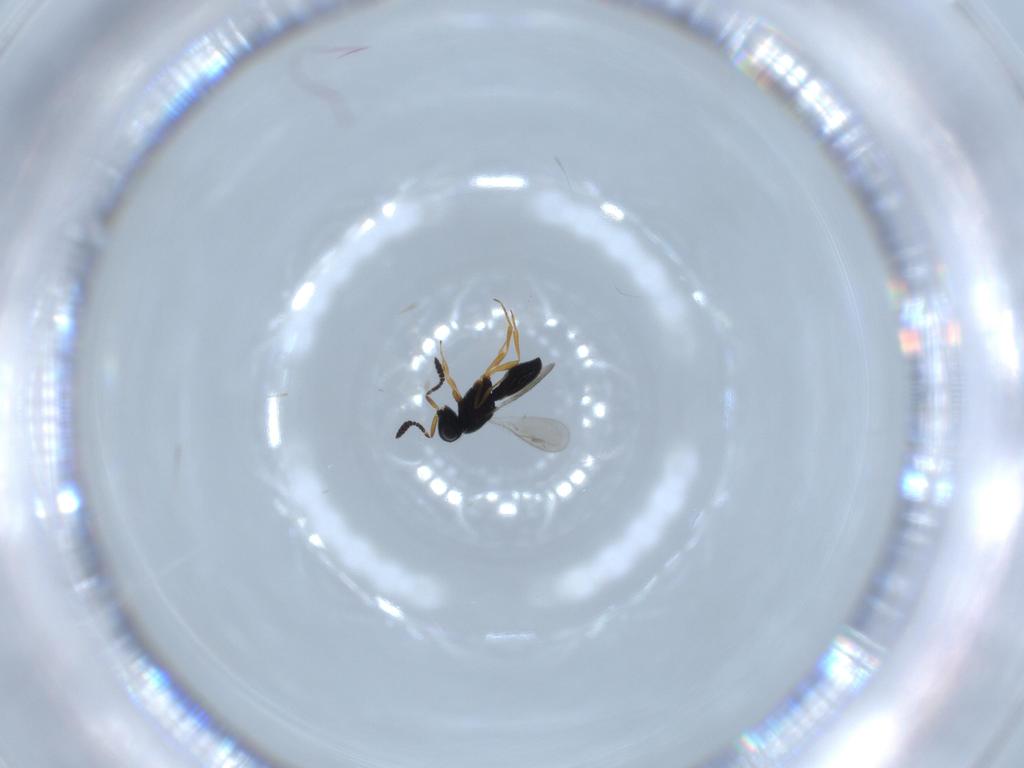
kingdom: Animalia
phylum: Arthropoda
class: Insecta
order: Hymenoptera
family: Scelionidae
